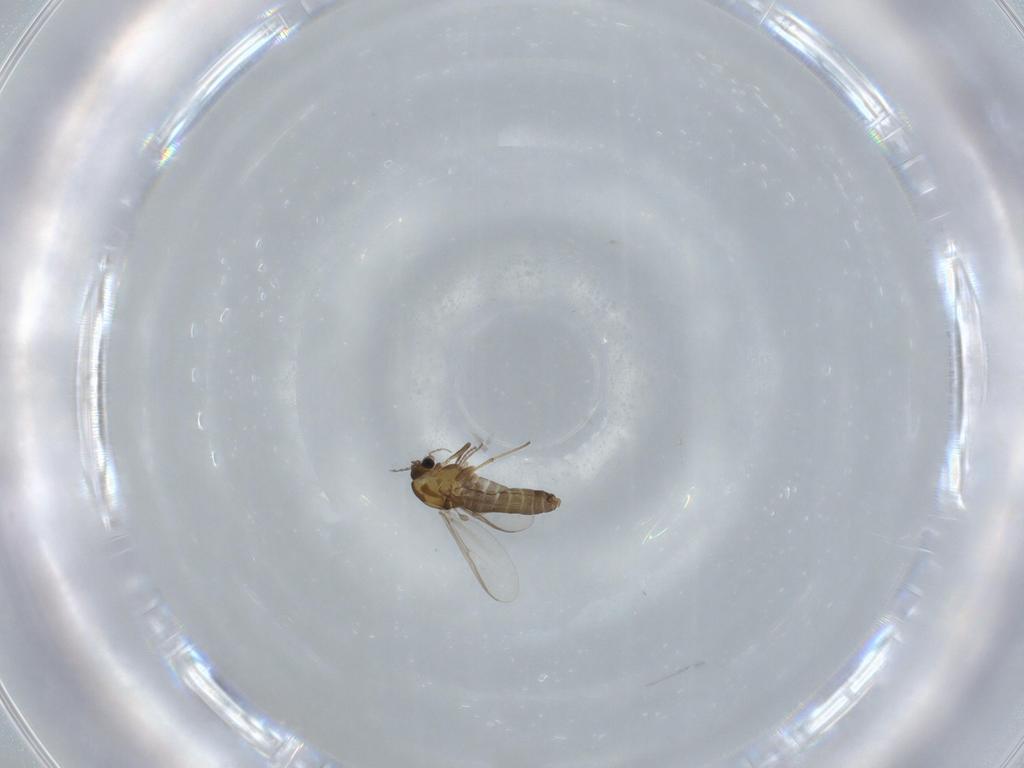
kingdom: Animalia
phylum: Arthropoda
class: Insecta
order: Diptera
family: Chironomidae
